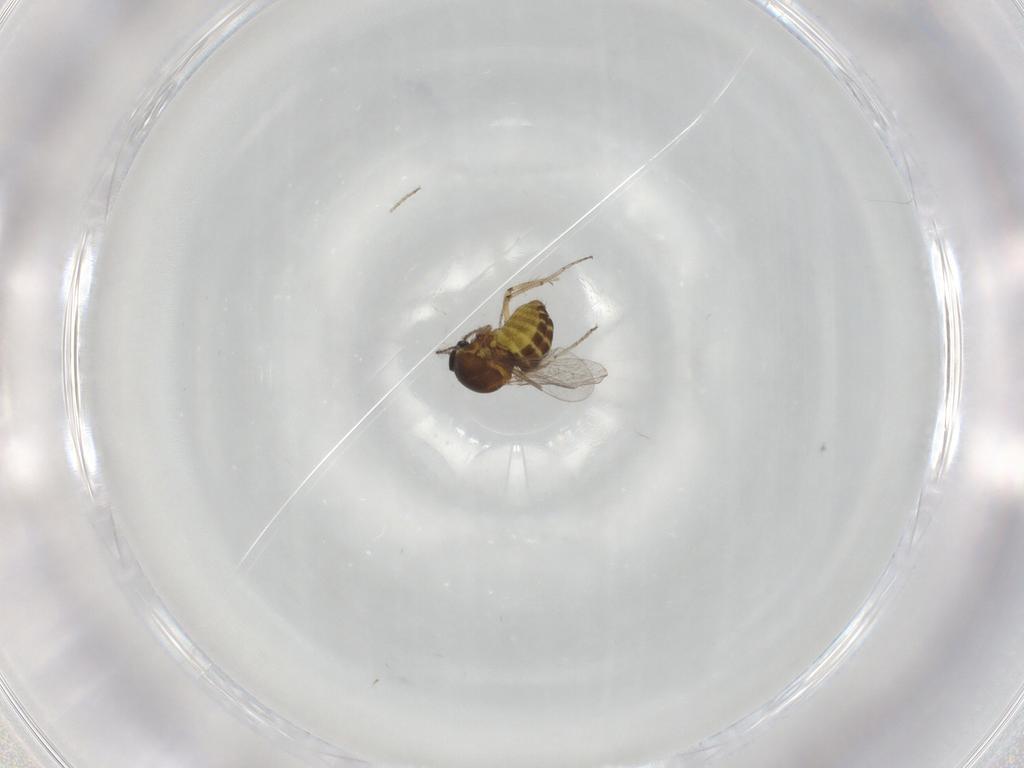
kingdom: Animalia
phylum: Arthropoda
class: Insecta
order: Diptera
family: Ceratopogonidae
